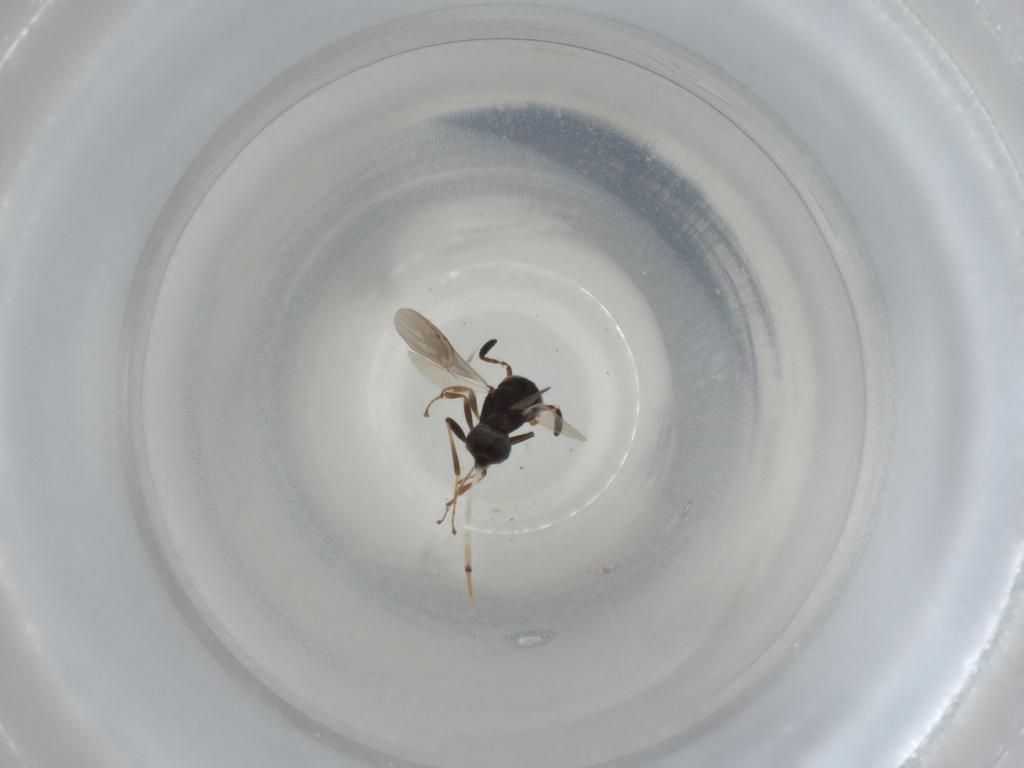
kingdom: Animalia
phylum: Arthropoda
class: Insecta
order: Hymenoptera
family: Scelionidae
